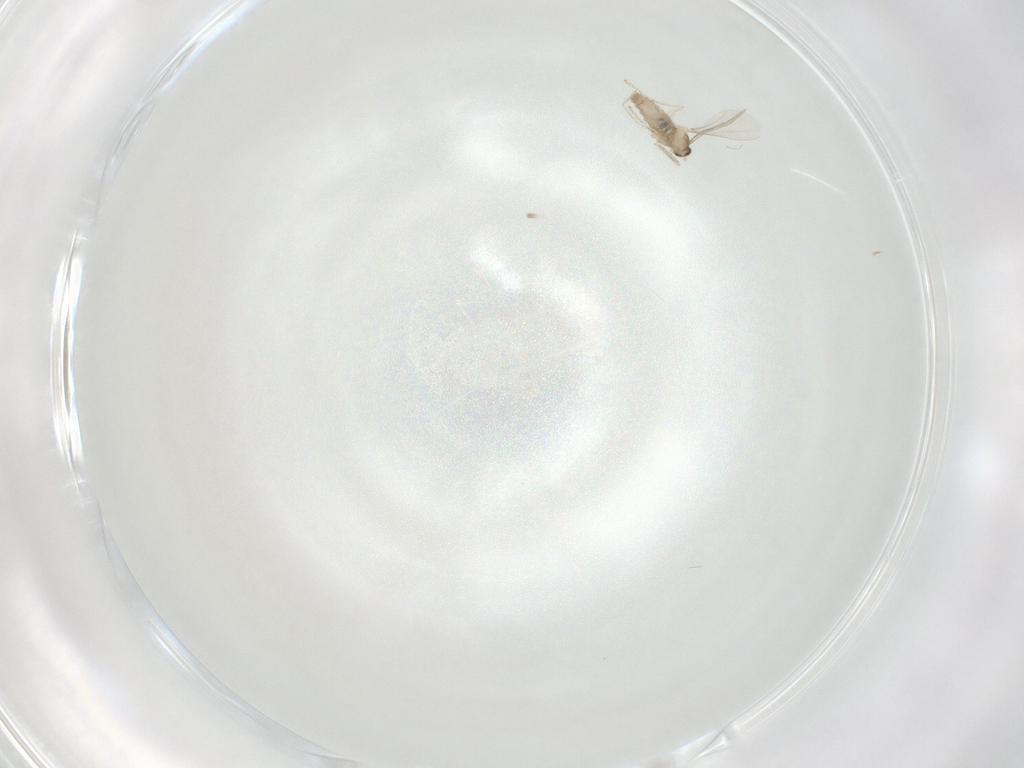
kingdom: Animalia
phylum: Arthropoda
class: Insecta
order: Diptera
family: Cecidomyiidae
